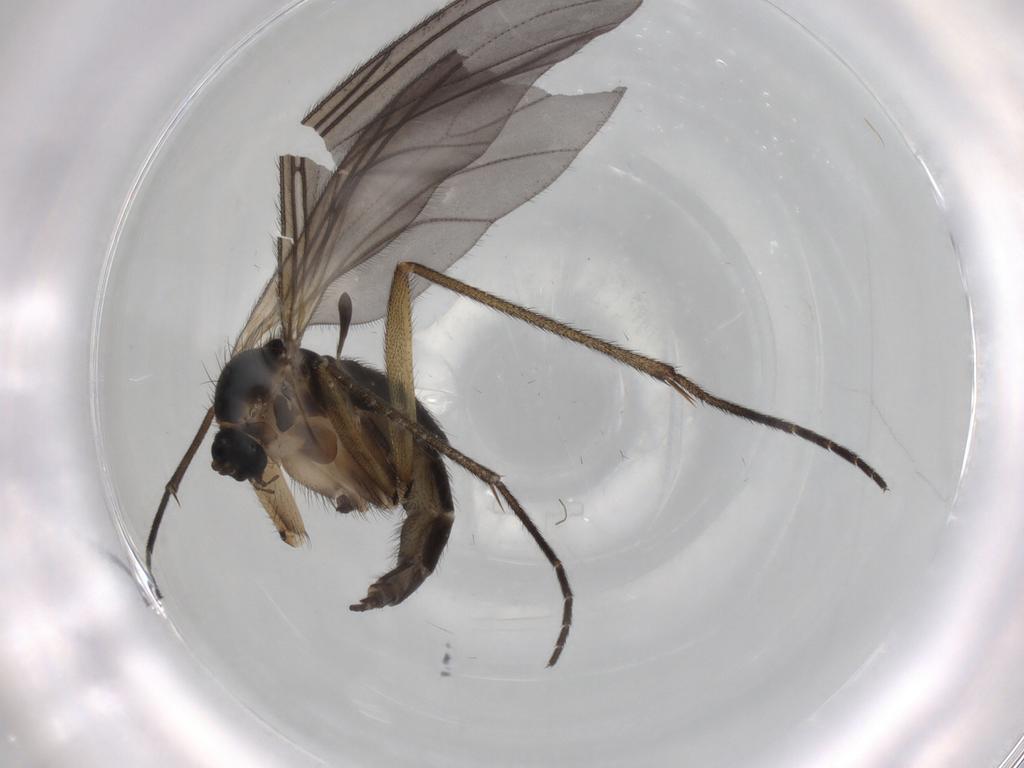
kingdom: Animalia
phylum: Arthropoda
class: Insecta
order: Diptera
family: Sciaridae
